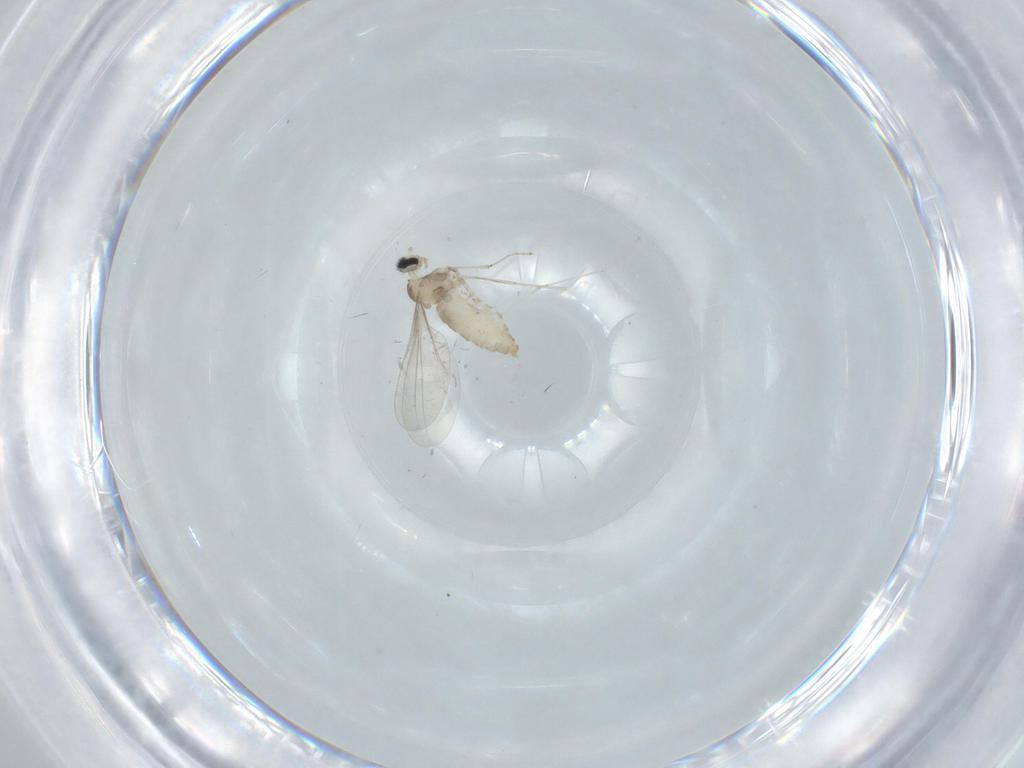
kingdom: Animalia
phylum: Arthropoda
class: Insecta
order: Diptera
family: Cecidomyiidae
